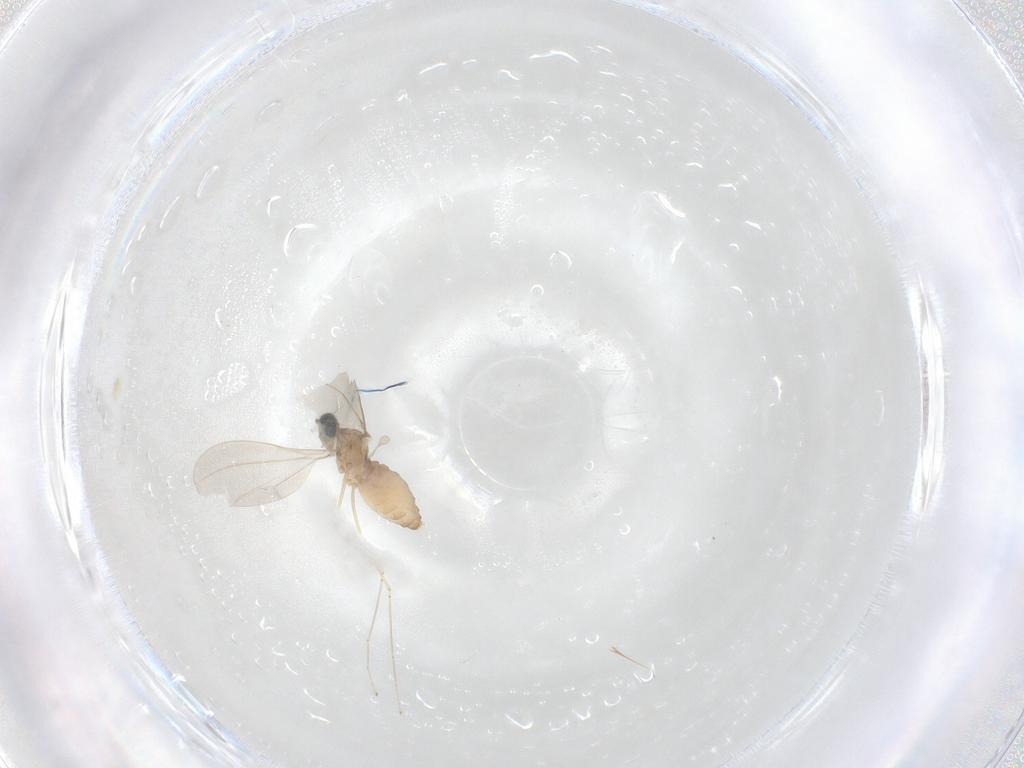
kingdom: Animalia
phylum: Arthropoda
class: Insecta
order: Diptera
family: Cecidomyiidae
